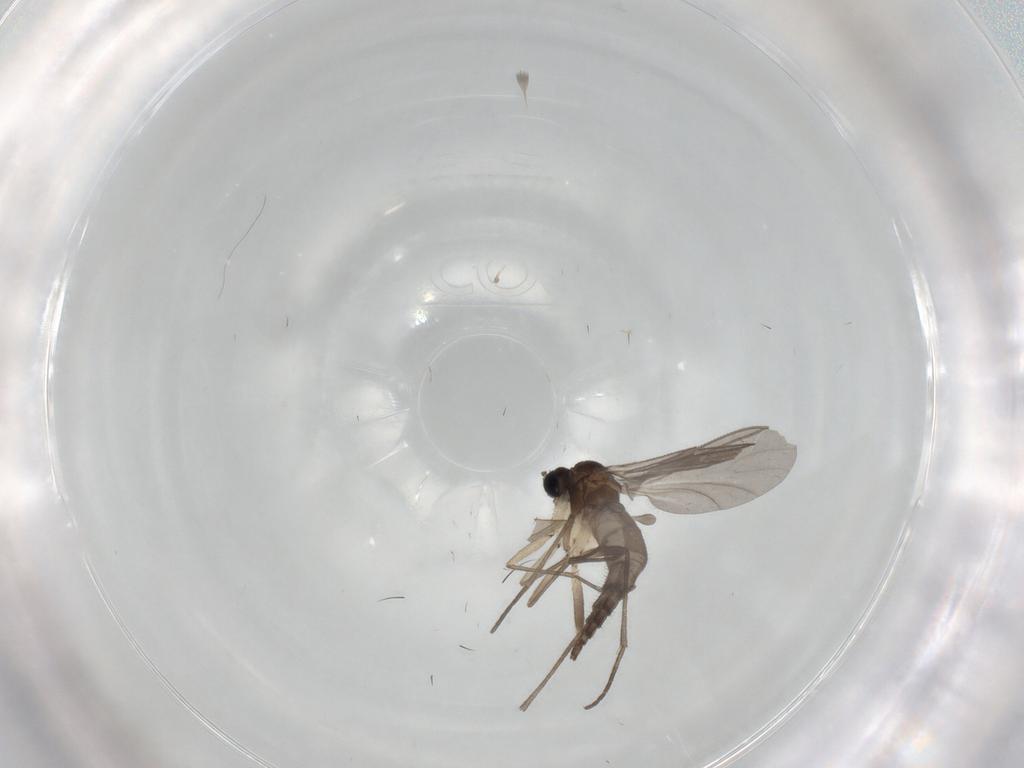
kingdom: Animalia
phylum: Arthropoda
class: Insecta
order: Diptera
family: Sciaridae
